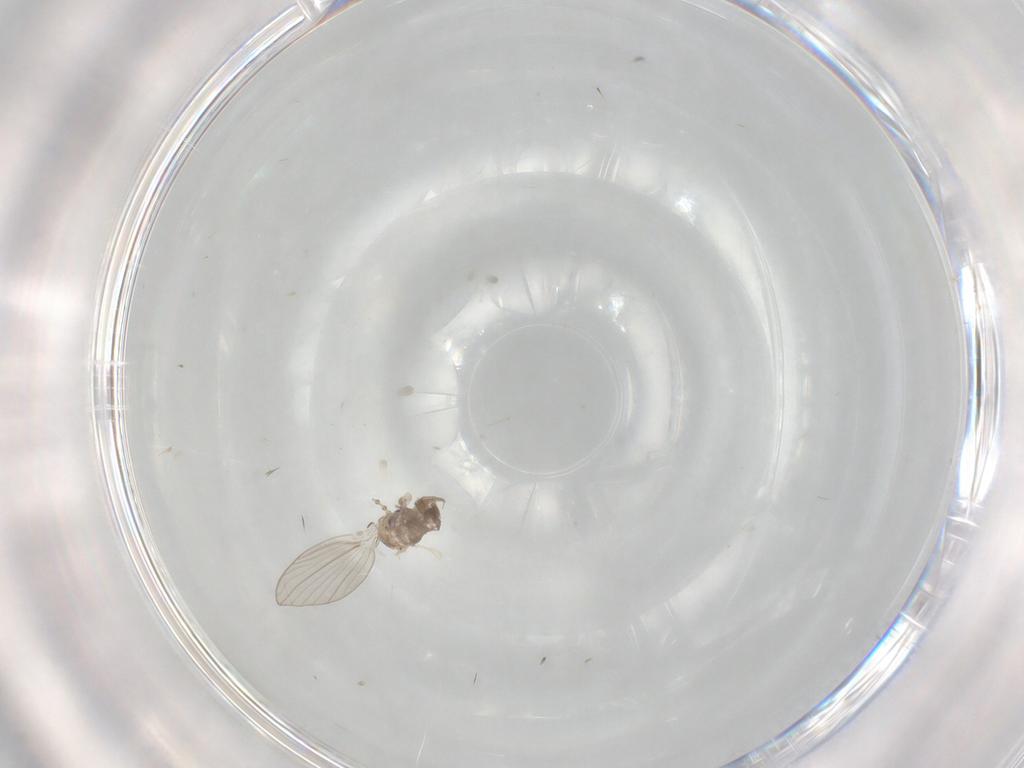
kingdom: Animalia
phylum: Arthropoda
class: Insecta
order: Diptera
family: Psychodidae
